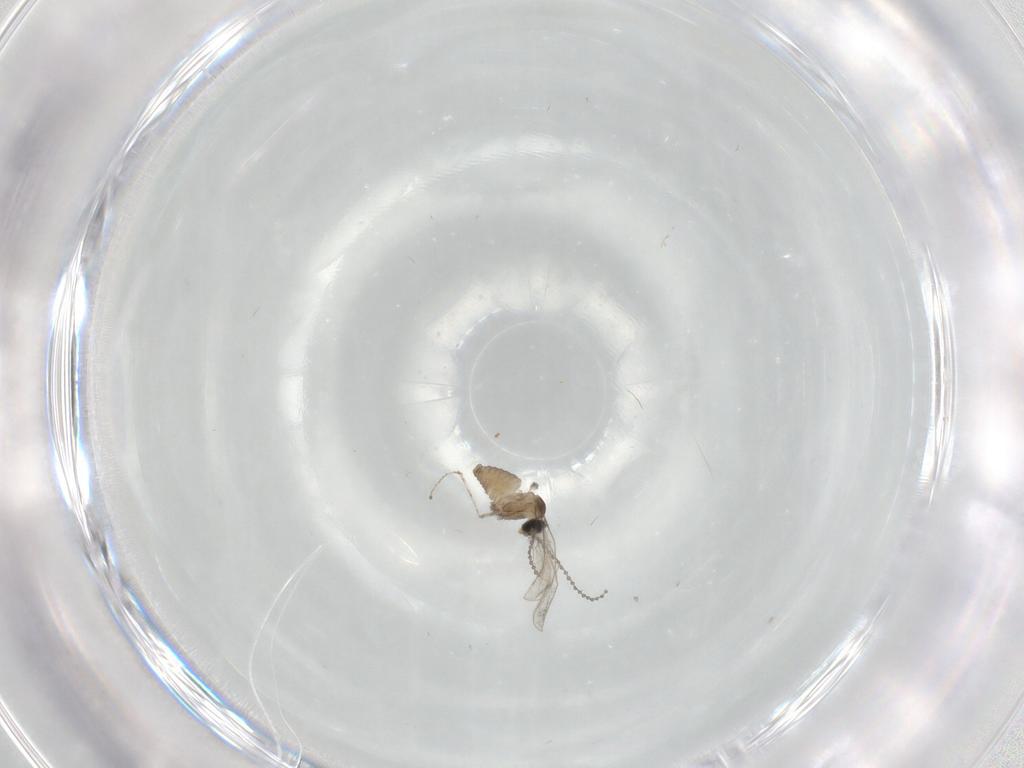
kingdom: Animalia
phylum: Arthropoda
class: Insecta
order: Diptera
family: Cecidomyiidae
